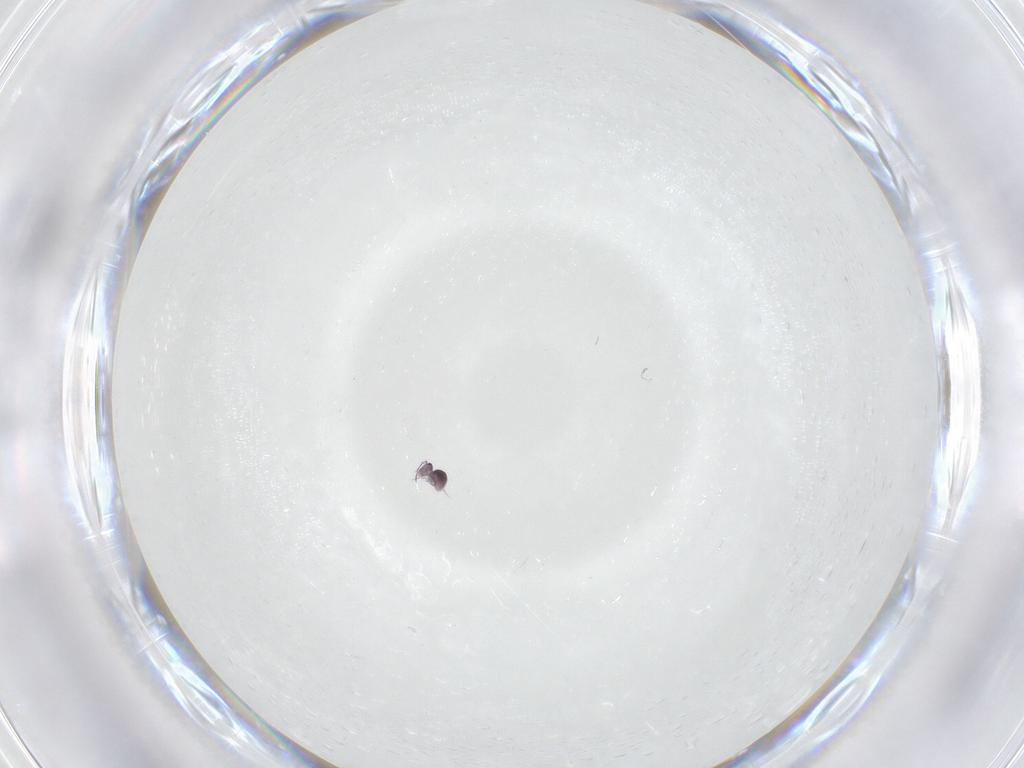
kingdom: Animalia
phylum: Arthropoda
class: Collembola
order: Symphypleona
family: Sminthurididae
